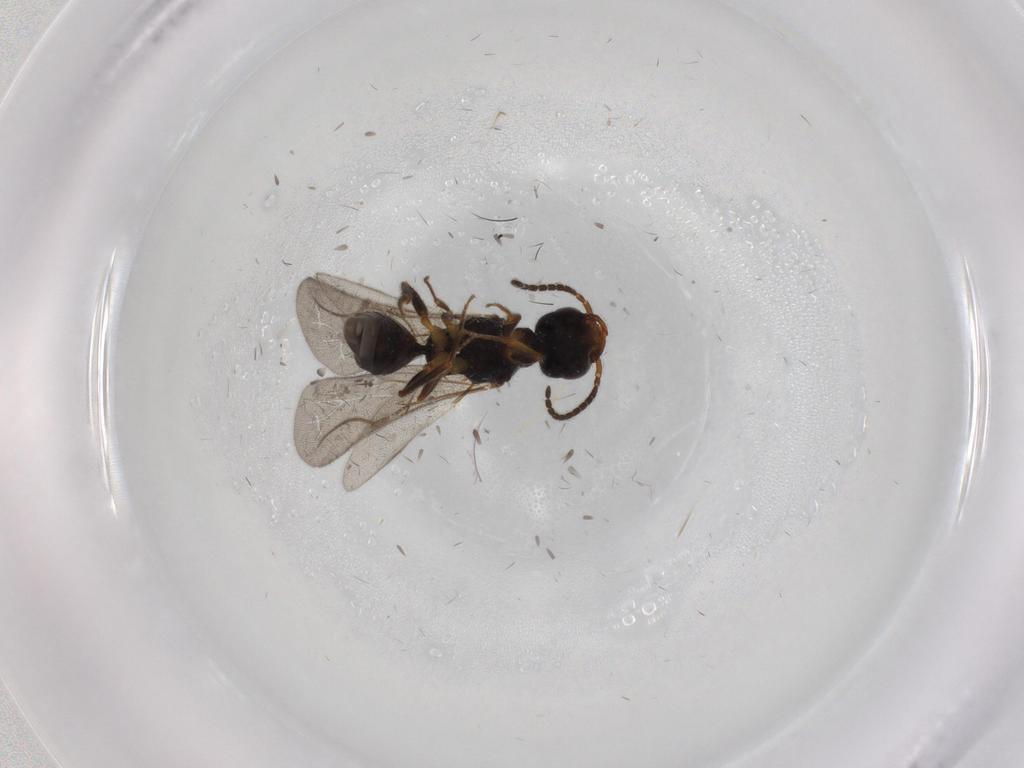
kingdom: Animalia
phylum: Arthropoda
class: Insecta
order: Hymenoptera
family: Bethylidae
